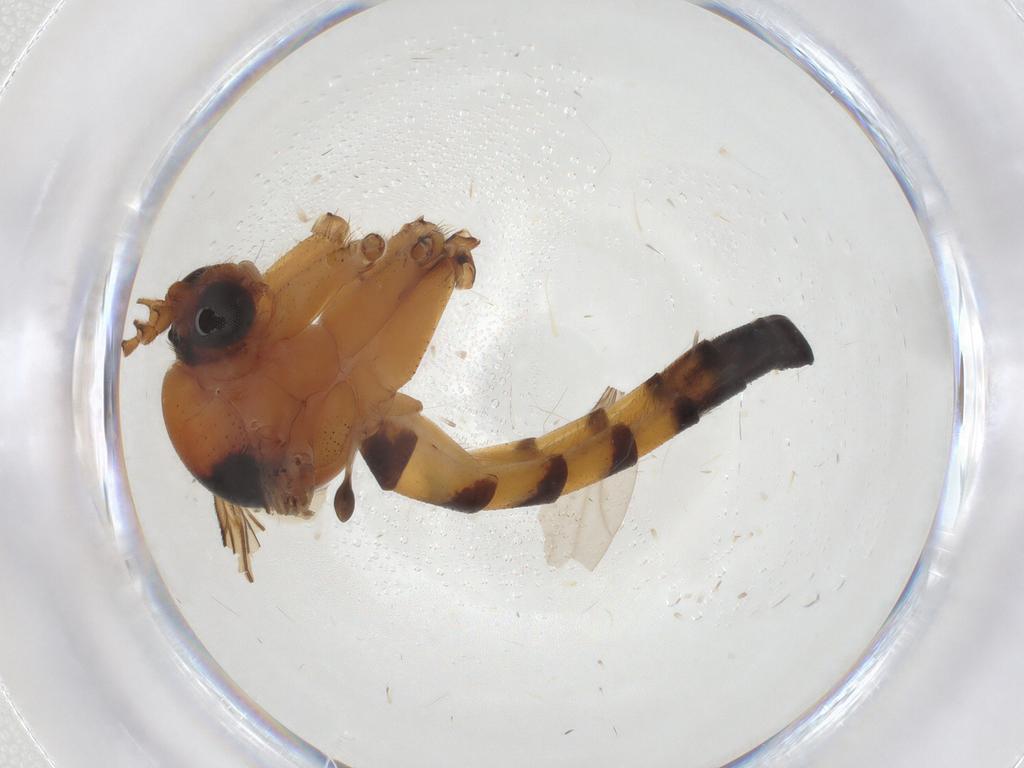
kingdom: Animalia
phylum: Arthropoda
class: Insecta
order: Diptera
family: Mycetophilidae
